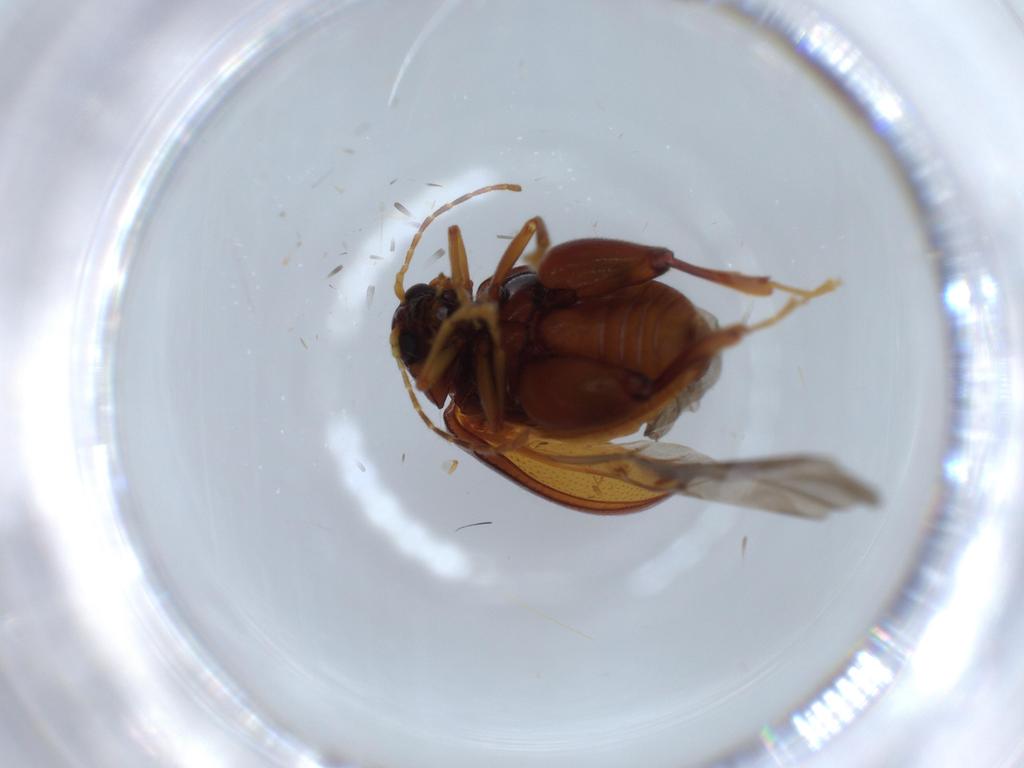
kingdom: Animalia
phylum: Arthropoda
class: Insecta
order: Coleoptera
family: Chrysomelidae
